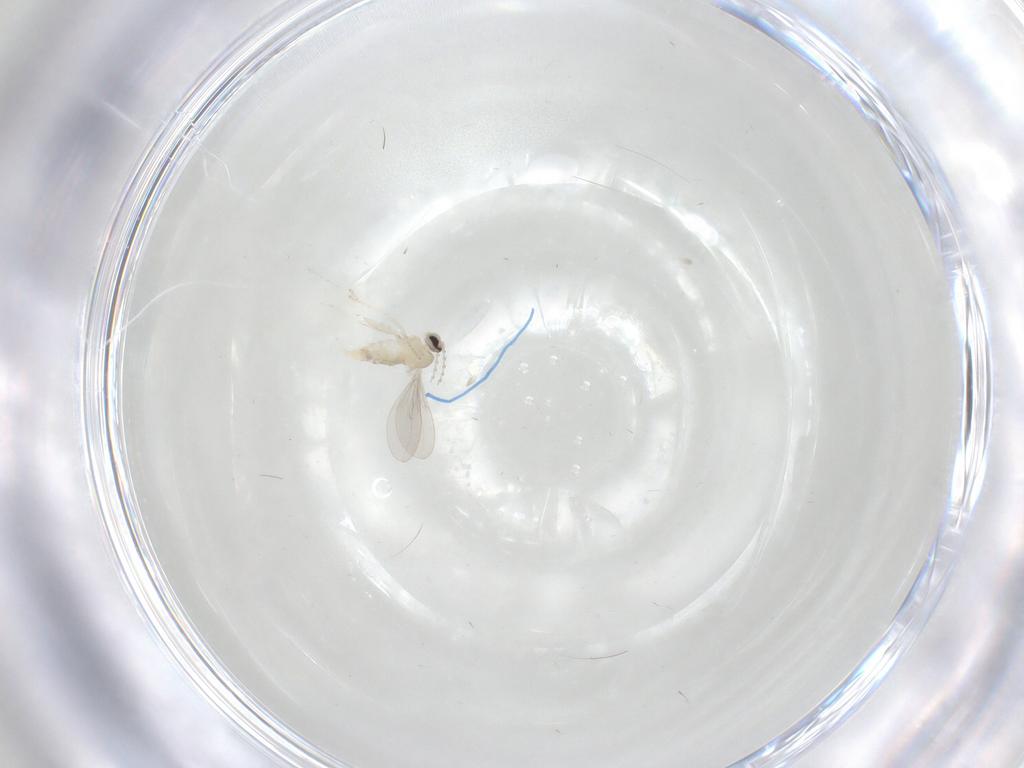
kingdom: Animalia
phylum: Arthropoda
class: Insecta
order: Diptera
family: Cecidomyiidae
